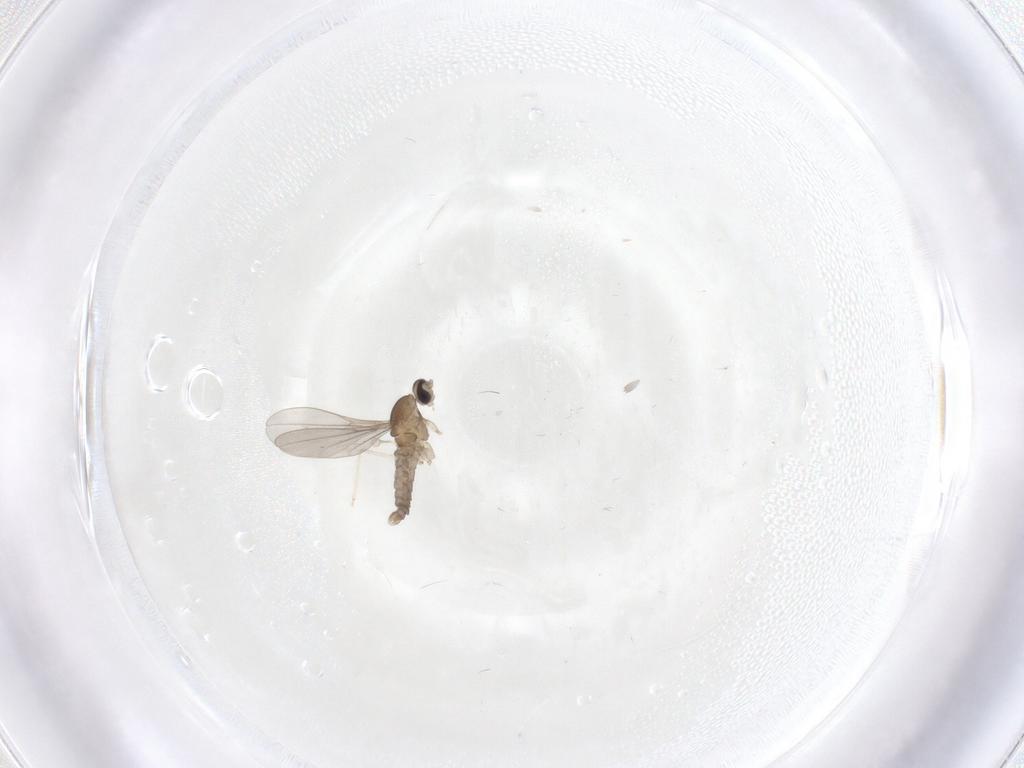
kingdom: Animalia
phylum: Arthropoda
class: Insecta
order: Diptera
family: Cecidomyiidae
